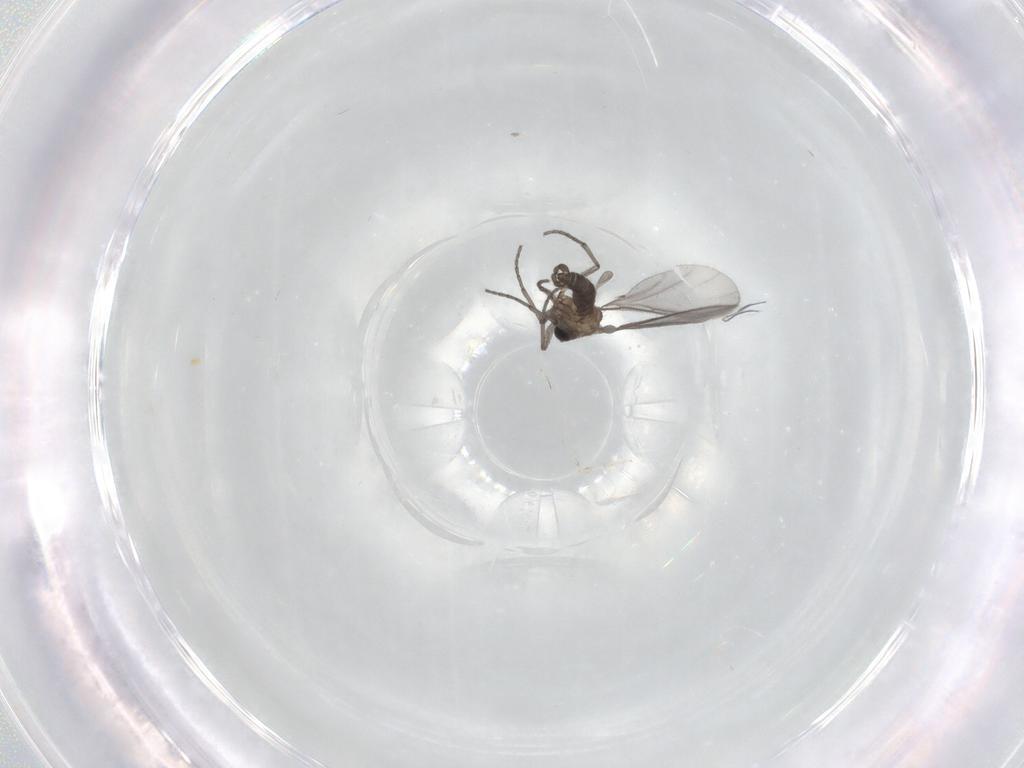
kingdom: Animalia
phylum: Arthropoda
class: Insecta
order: Diptera
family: Sciaridae
